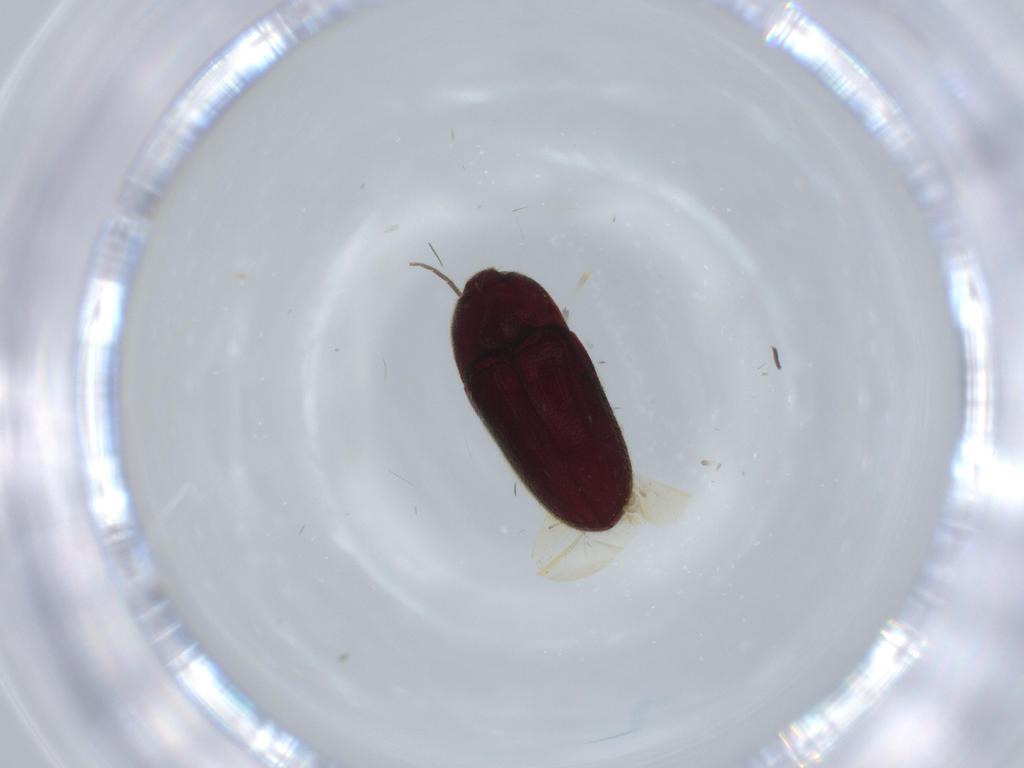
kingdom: Animalia
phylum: Arthropoda
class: Insecta
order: Coleoptera
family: Throscidae
